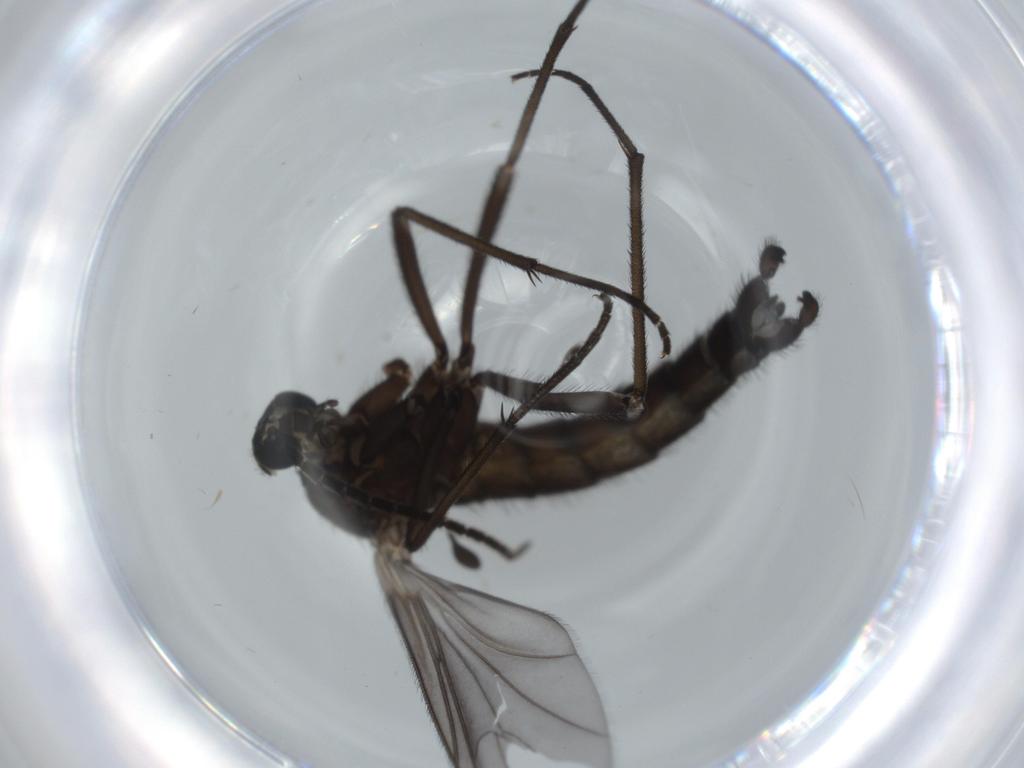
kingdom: Animalia
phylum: Arthropoda
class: Insecta
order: Diptera
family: Sciaridae
